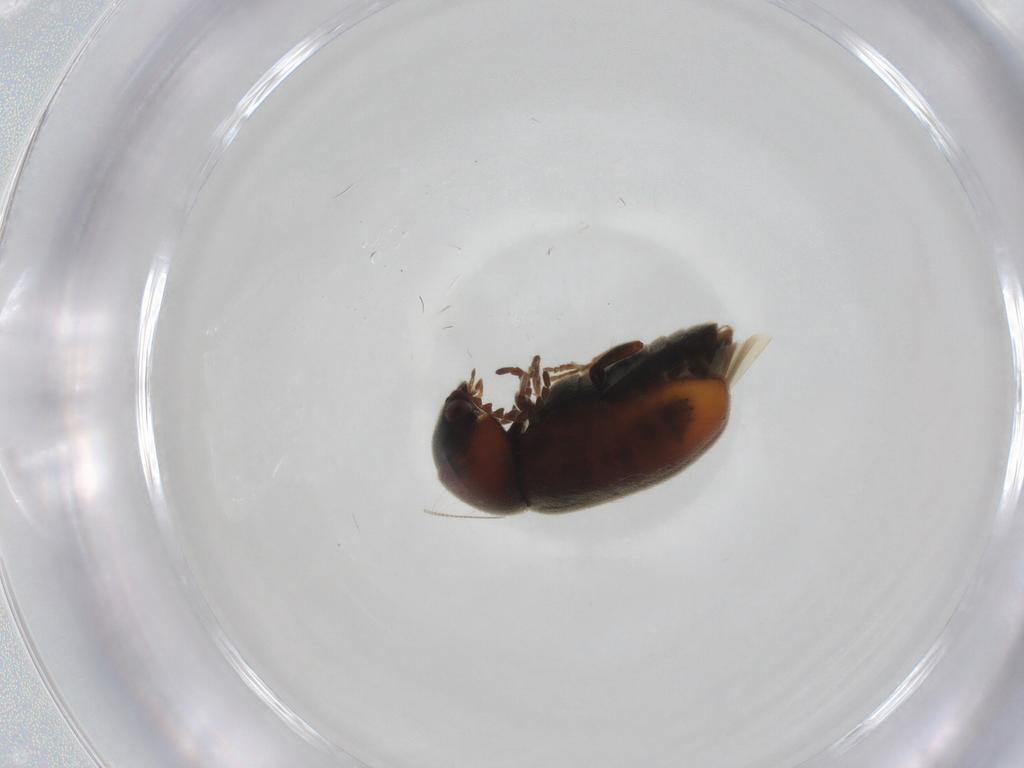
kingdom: Animalia
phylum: Arthropoda
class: Insecta
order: Coleoptera
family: Ptinidae
